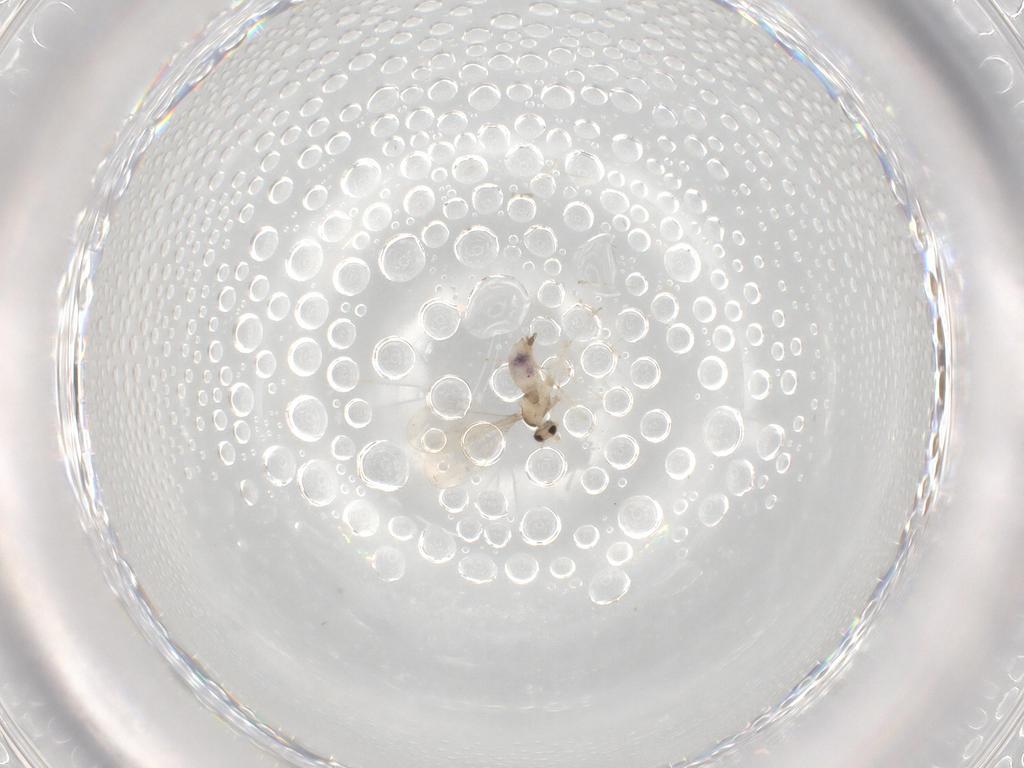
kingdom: Animalia
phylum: Arthropoda
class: Insecta
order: Diptera
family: Cecidomyiidae
